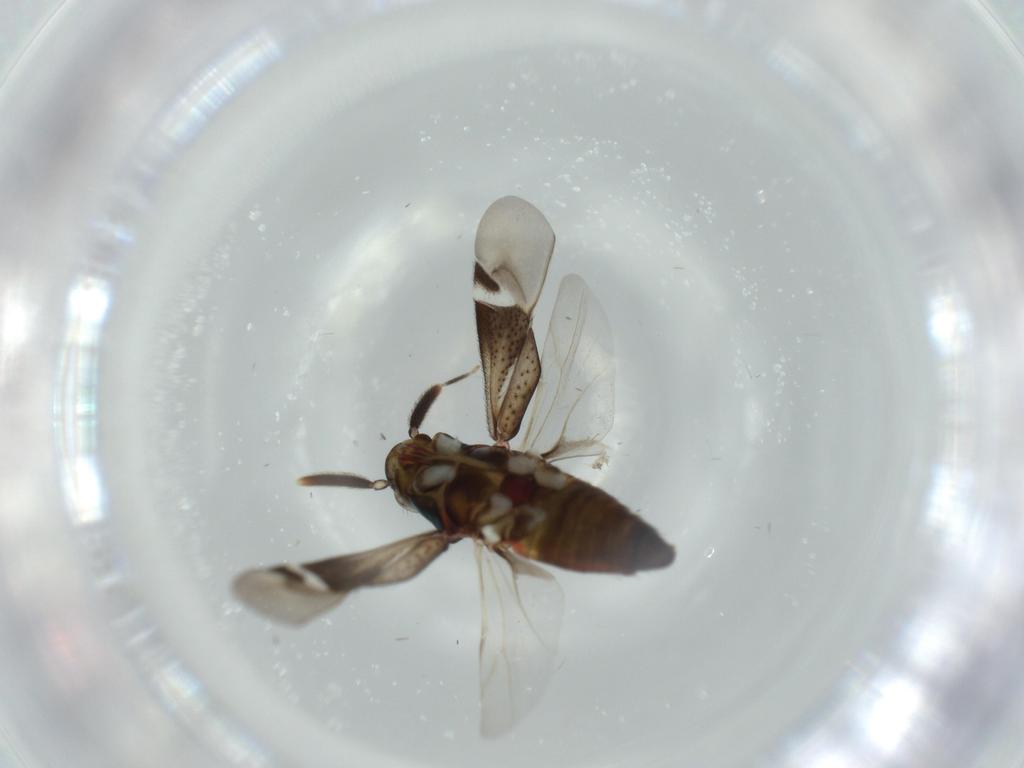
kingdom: Animalia
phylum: Arthropoda
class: Insecta
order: Hemiptera
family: Miridae
